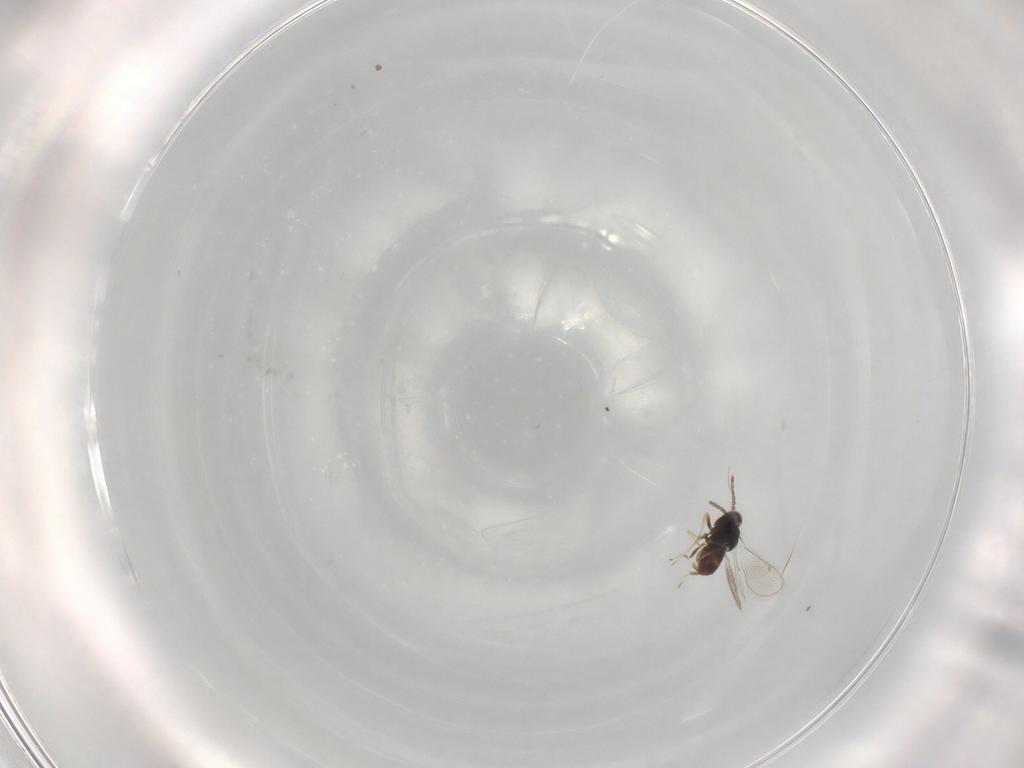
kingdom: Animalia
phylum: Arthropoda
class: Insecta
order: Hymenoptera
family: Eulophidae
